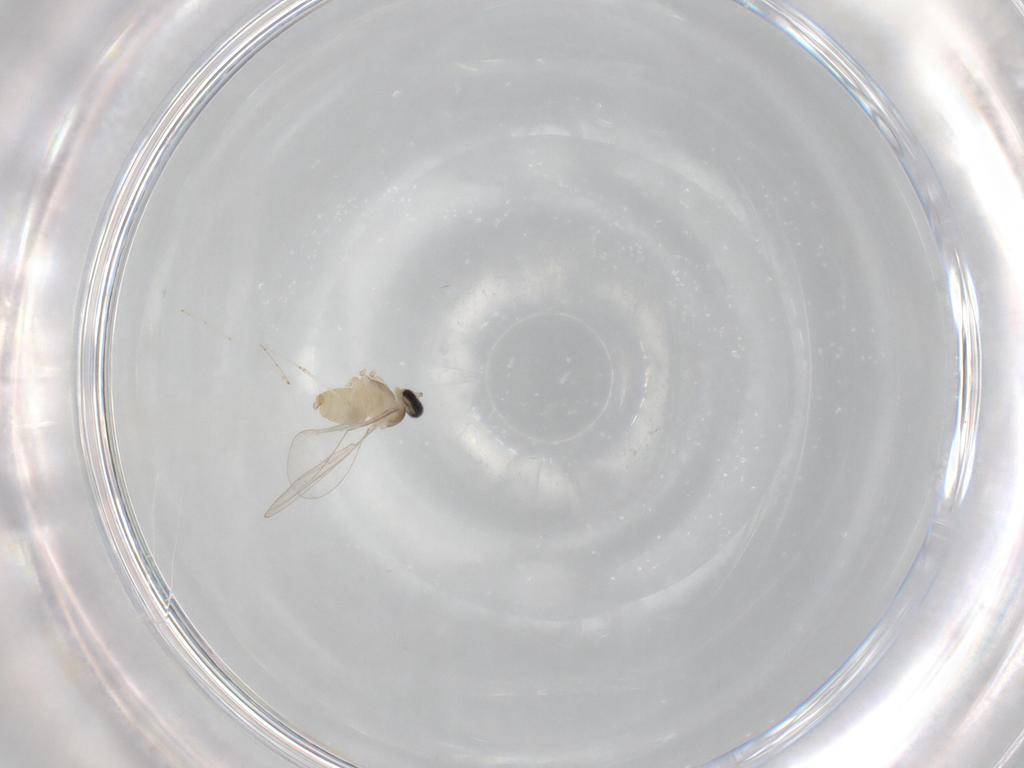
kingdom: Animalia
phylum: Arthropoda
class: Insecta
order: Diptera
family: Cecidomyiidae
